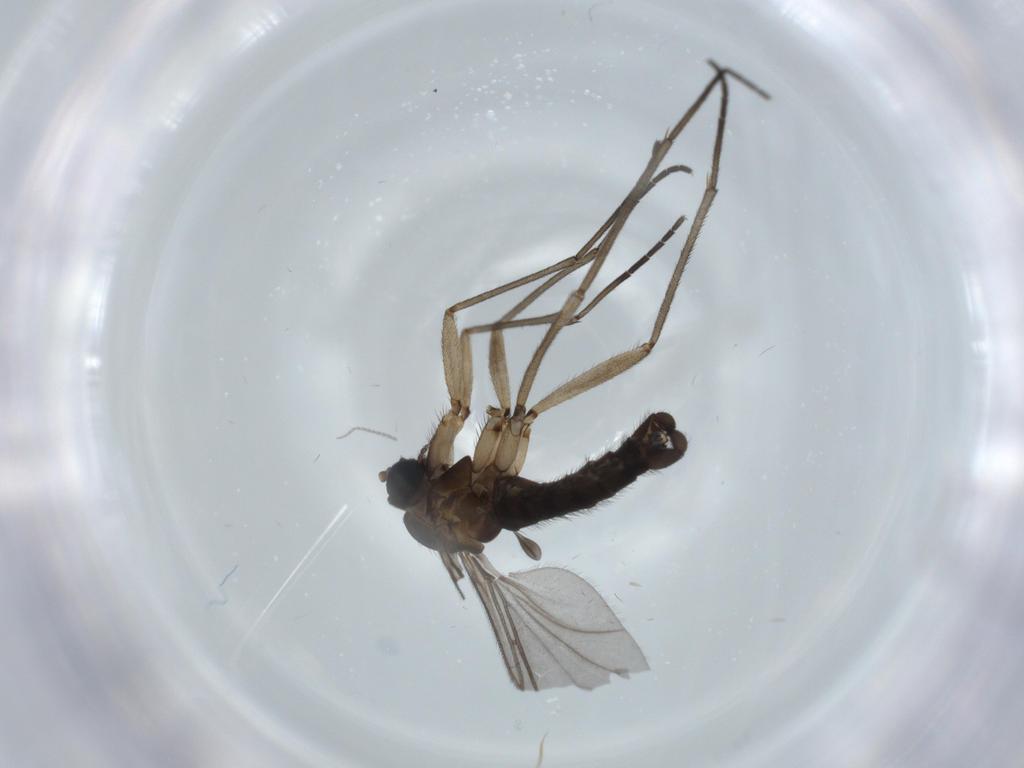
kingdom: Animalia
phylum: Arthropoda
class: Insecta
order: Diptera
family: Sciaridae
